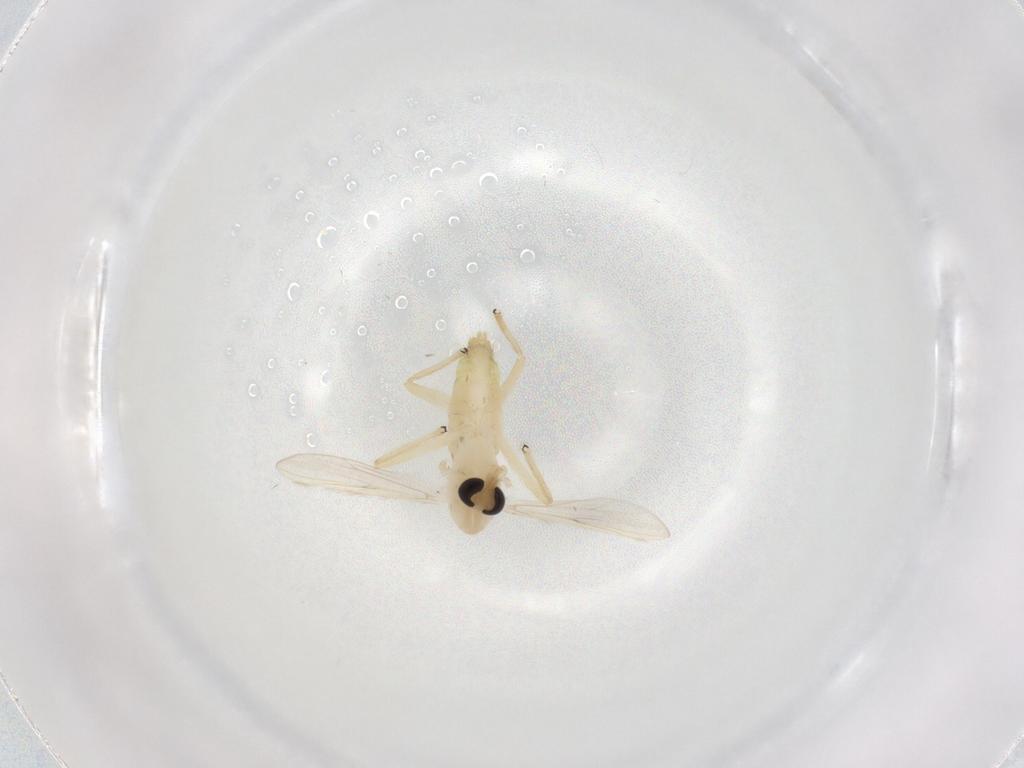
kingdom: Animalia
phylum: Arthropoda
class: Insecta
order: Diptera
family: Chironomidae
